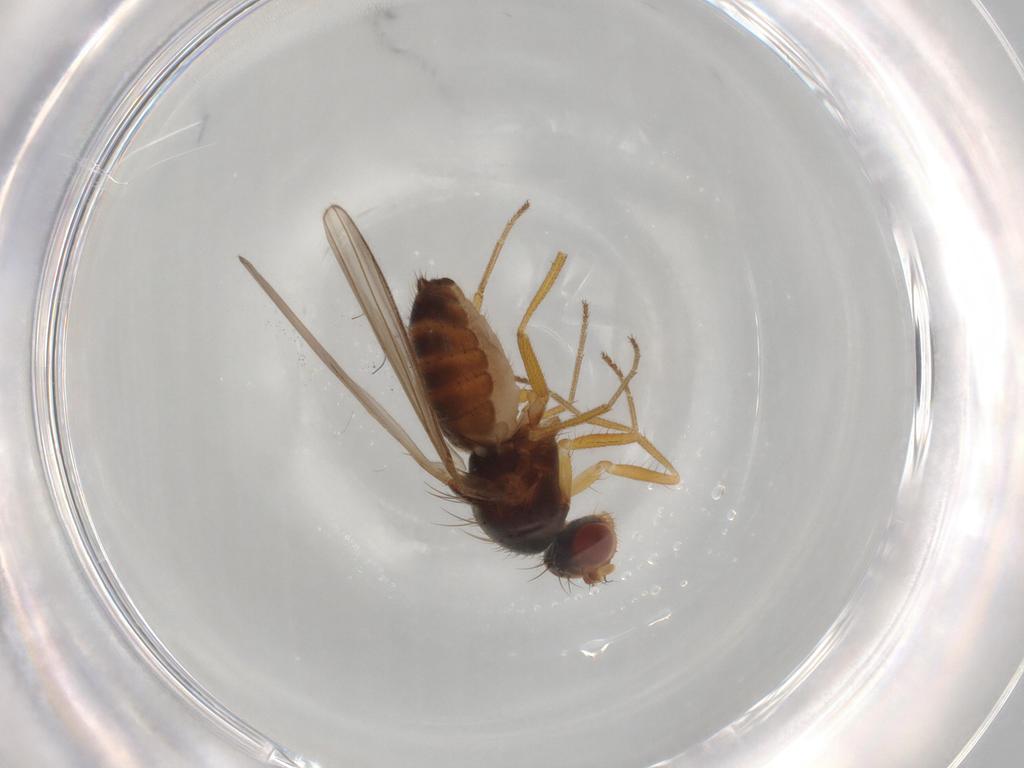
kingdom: Animalia
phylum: Arthropoda
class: Insecta
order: Diptera
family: Drosophilidae
